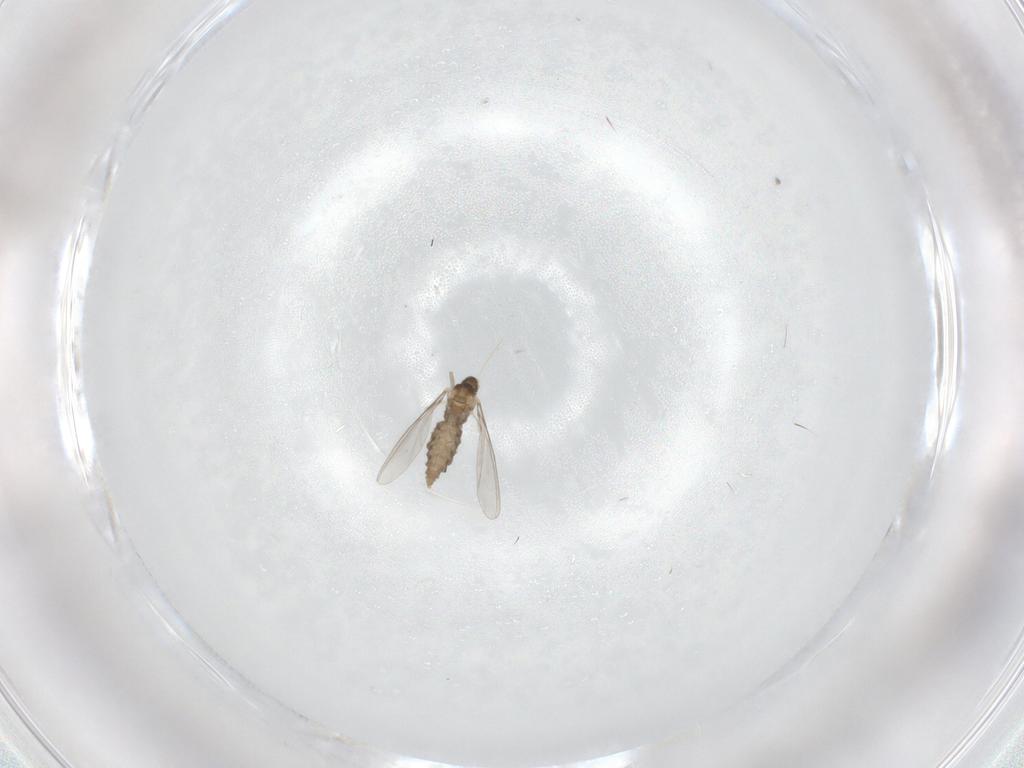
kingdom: Animalia
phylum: Arthropoda
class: Insecta
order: Diptera
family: Cecidomyiidae
